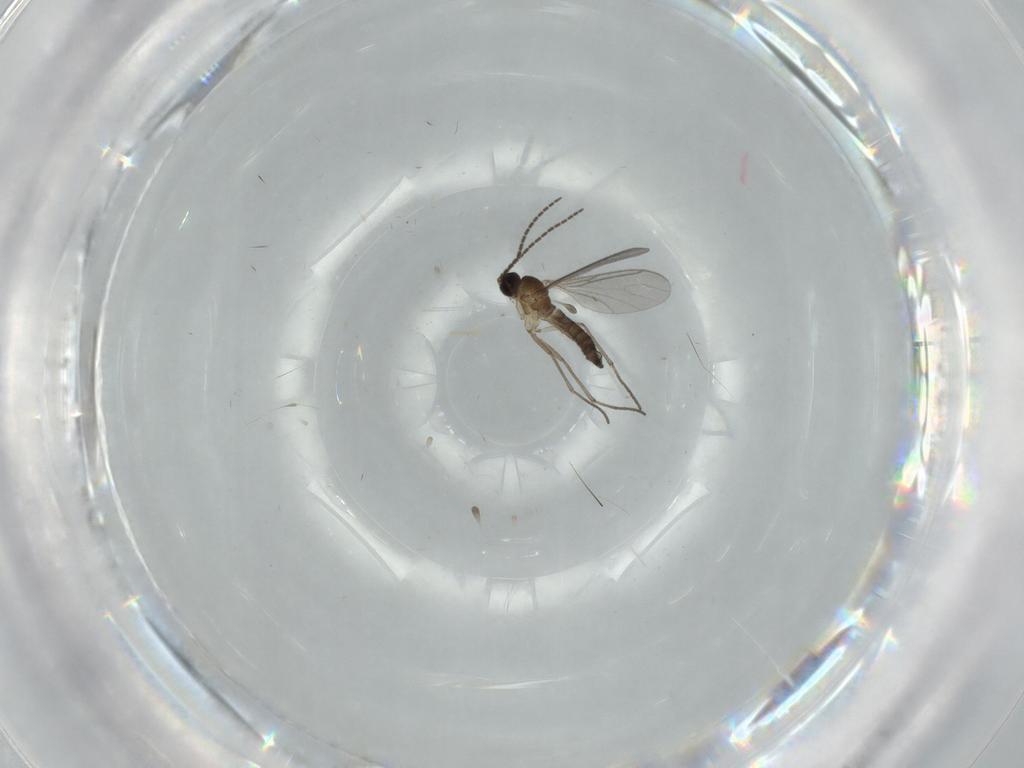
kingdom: Animalia
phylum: Arthropoda
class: Insecta
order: Diptera
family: Sciaridae
